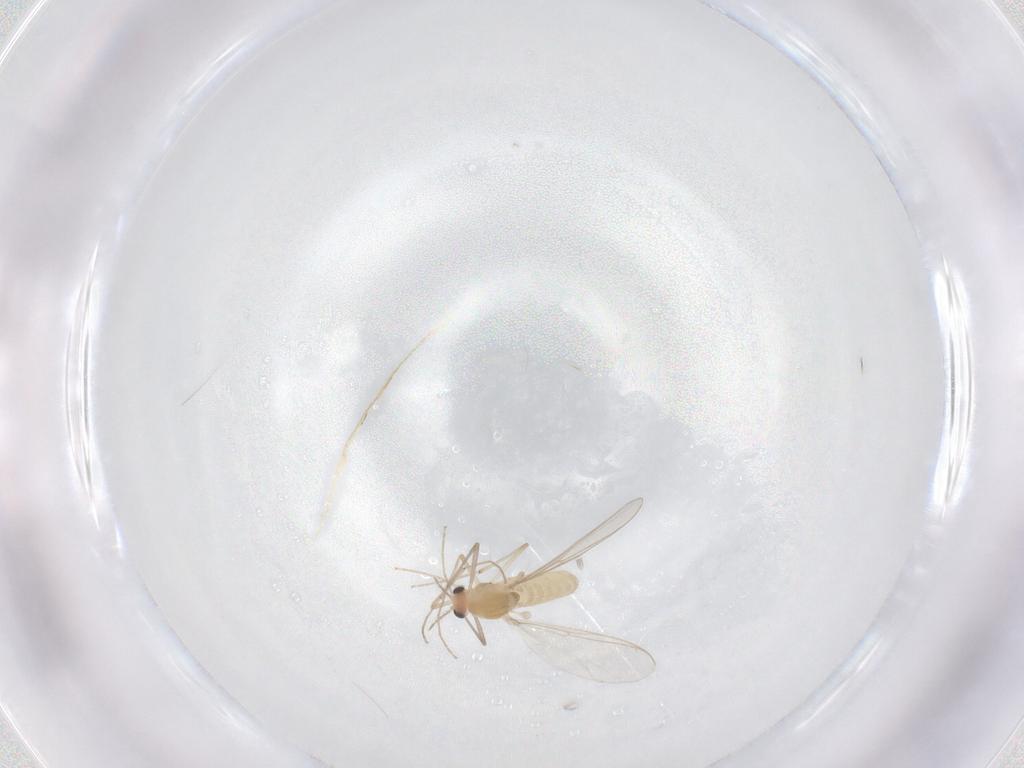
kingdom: Animalia
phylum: Arthropoda
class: Insecta
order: Diptera
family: Chironomidae
